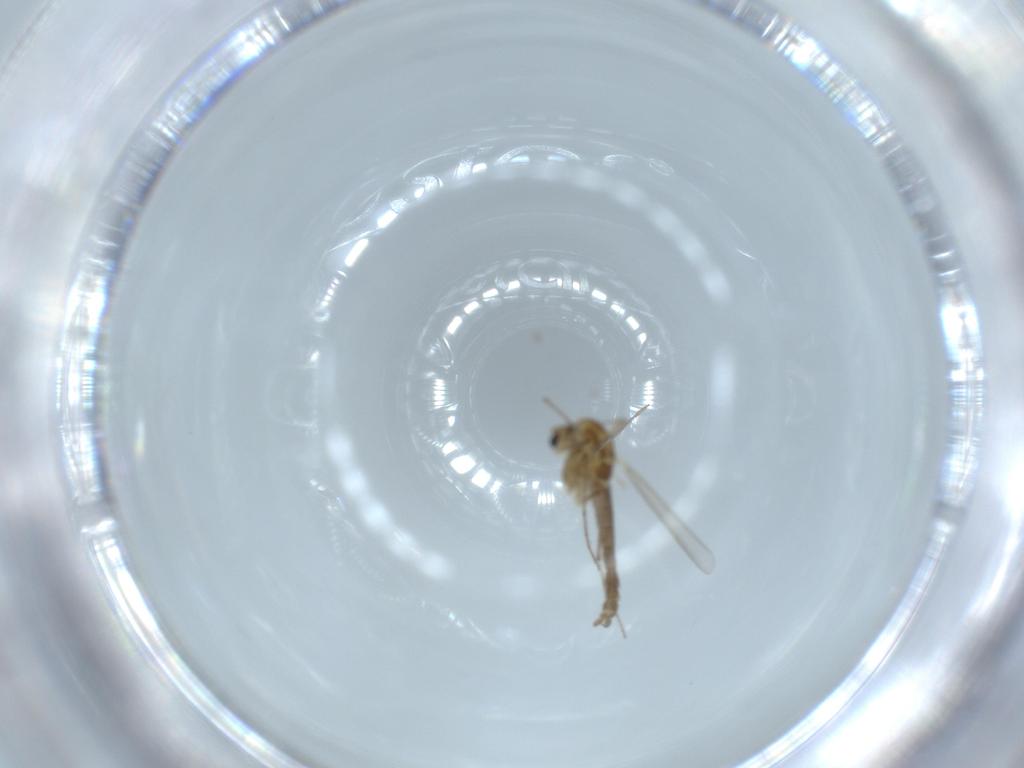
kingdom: Animalia
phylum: Arthropoda
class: Insecta
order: Diptera
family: Chironomidae
